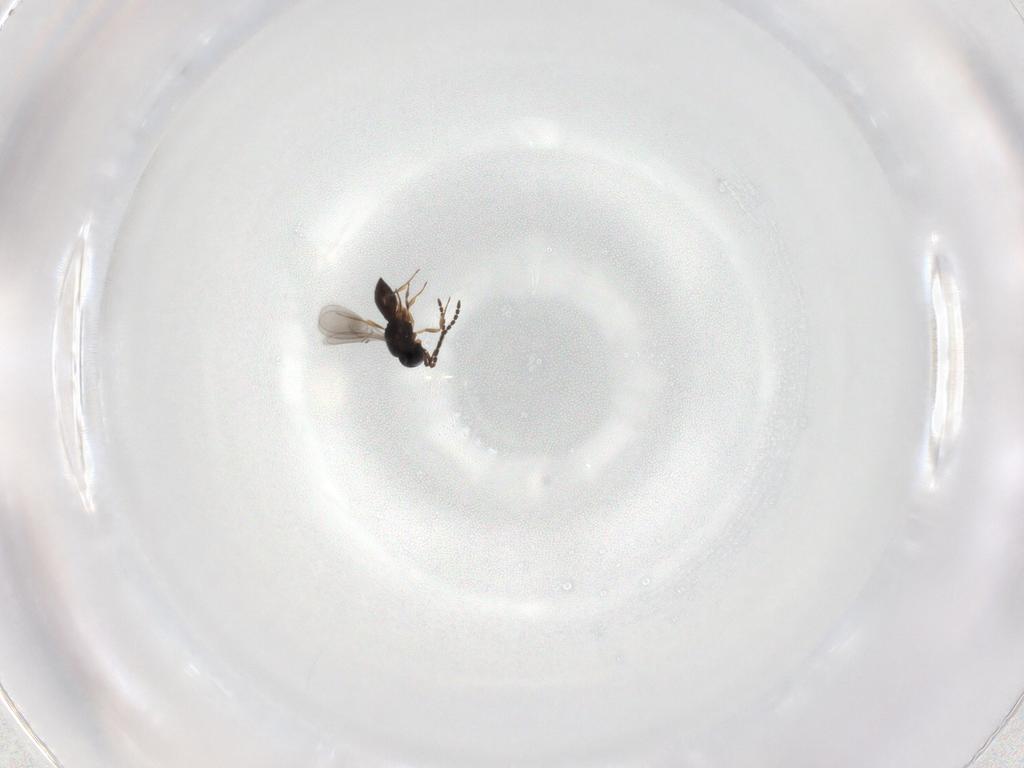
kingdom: Animalia
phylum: Arthropoda
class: Insecta
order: Hymenoptera
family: Scelionidae
